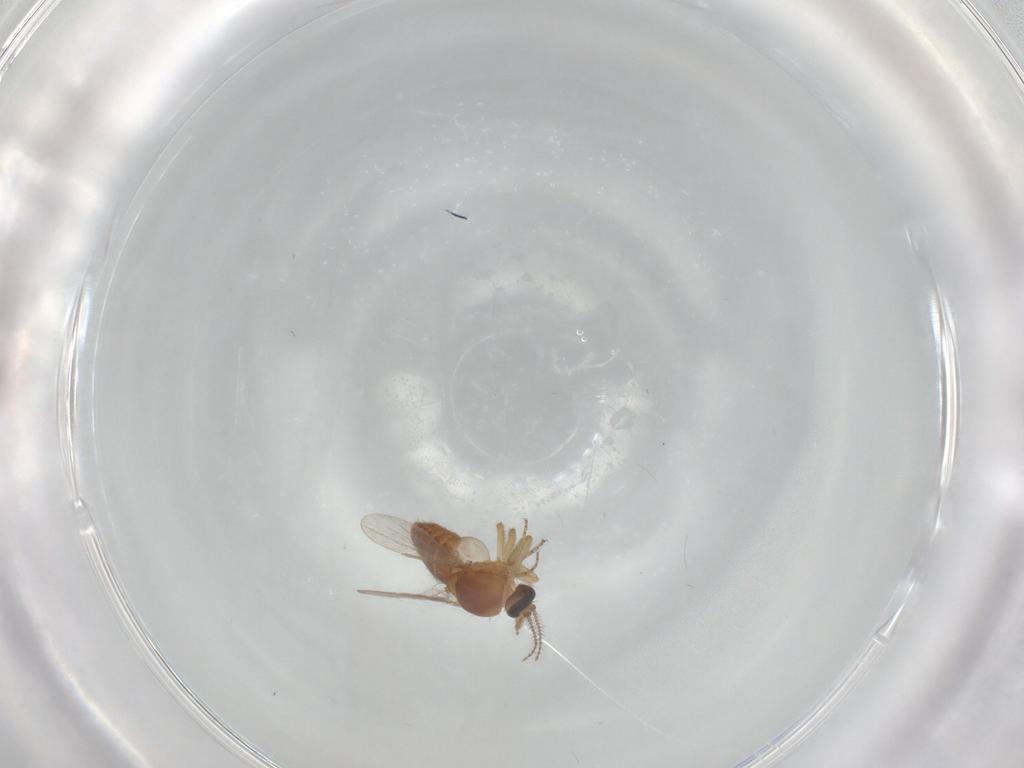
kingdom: Animalia
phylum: Arthropoda
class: Insecta
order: Diptera
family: Ceratopogonidae
